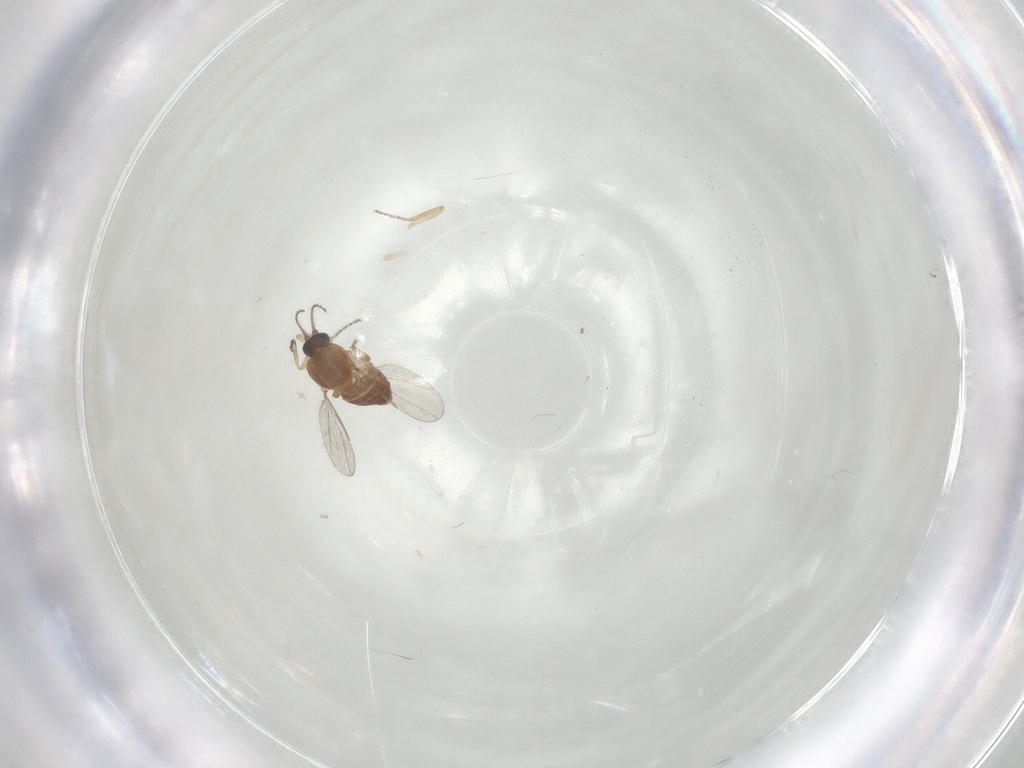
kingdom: Animalia
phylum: Arthropoda
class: Insecta
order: Diptera
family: Ceratopogonidae
